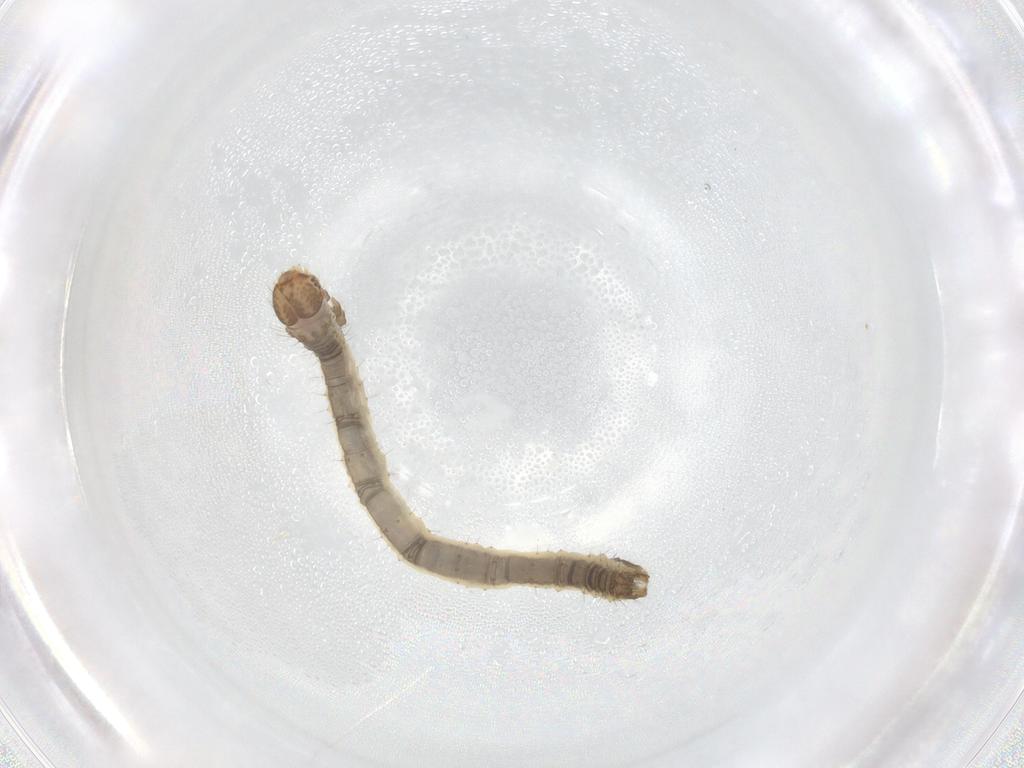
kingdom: Animalia
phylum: Arthropoda
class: Insecta
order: Lepidoptera
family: Geometridae
